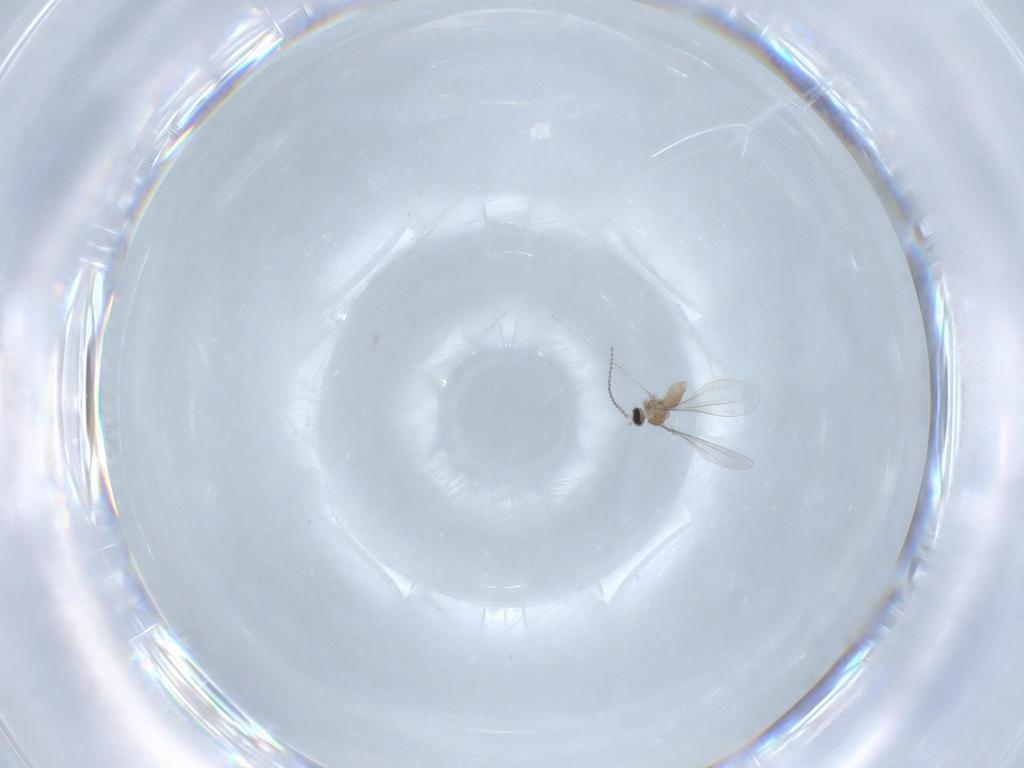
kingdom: Animalia
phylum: Arthropoda
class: Insecta
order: Diptera
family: Cecidomyiidae
